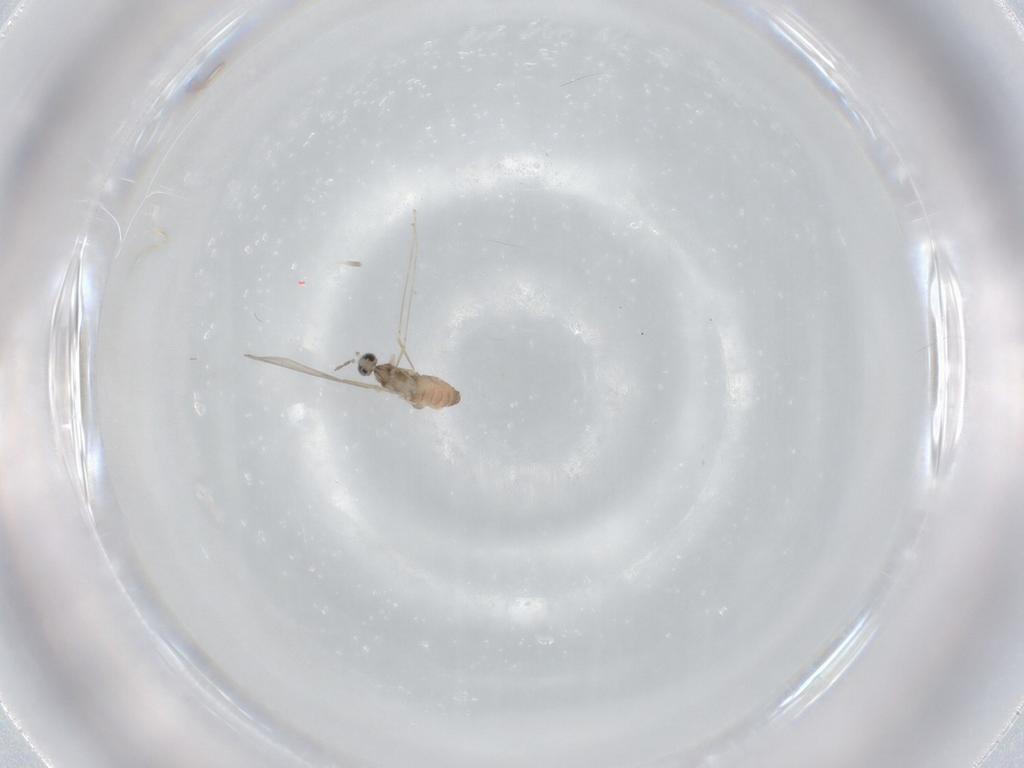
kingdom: Animalia
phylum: Arthropoda
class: Insecta
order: Diptera
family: Cecidomyiidae
